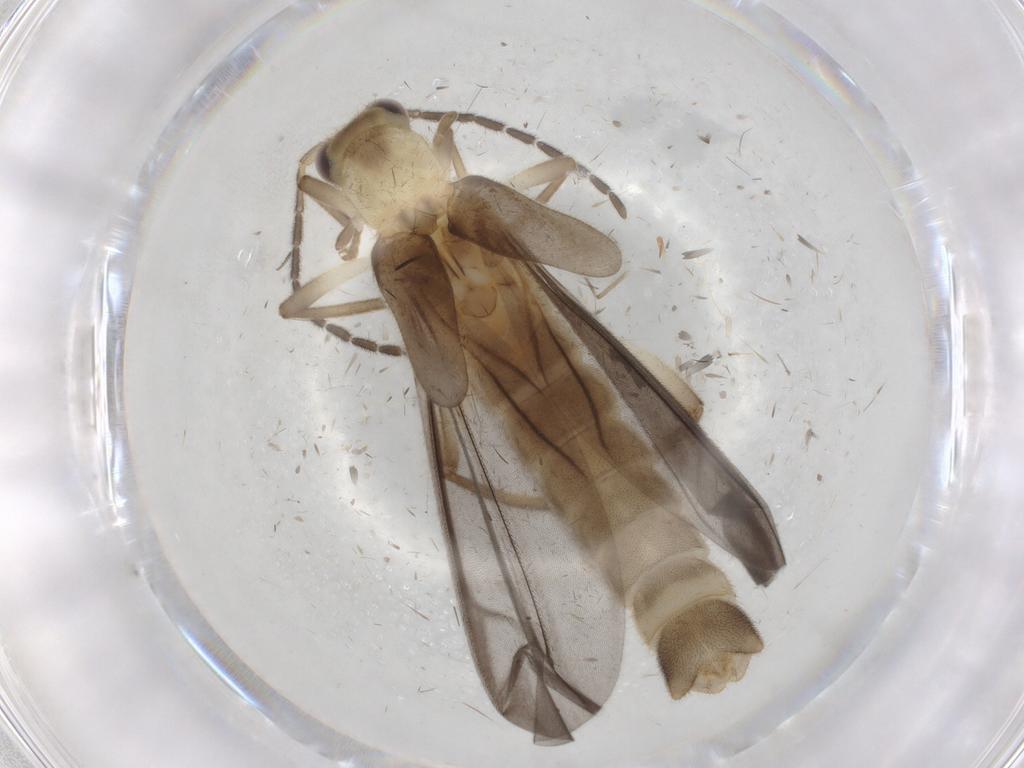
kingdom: Animalia
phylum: Arthropoda
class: Insecta
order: Coleoptera
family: Cantharidae
